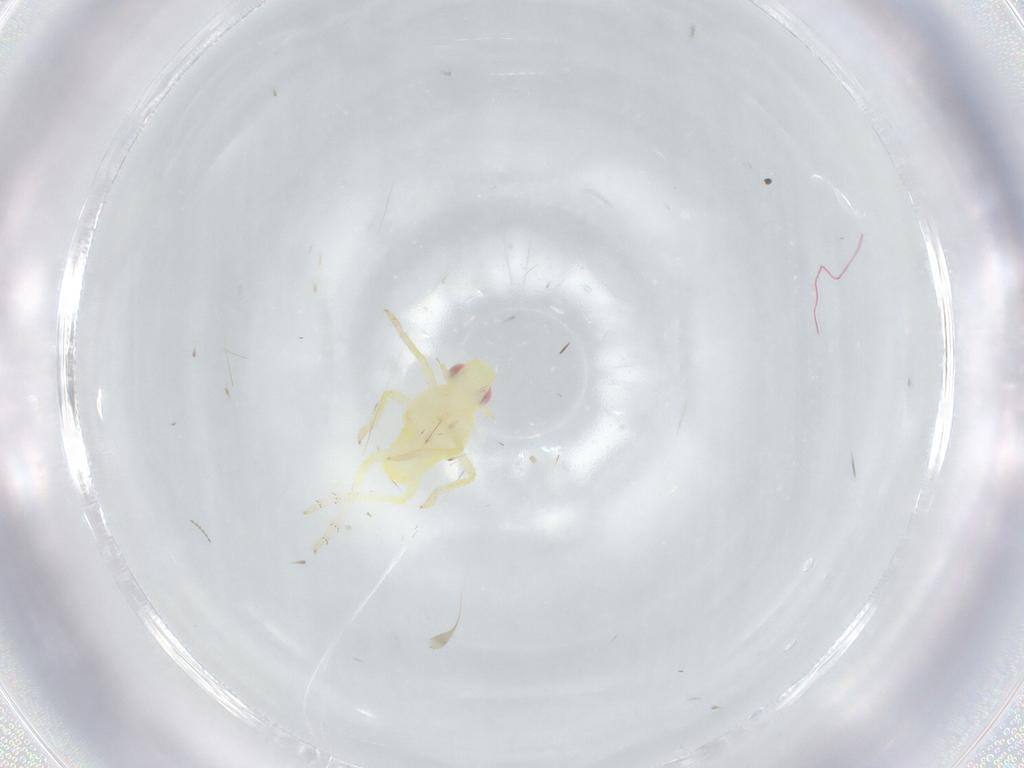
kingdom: Animalia
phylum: Arthropoda
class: Insecta
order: Hemiptera
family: Fulgoroidea_incertae_sedis
